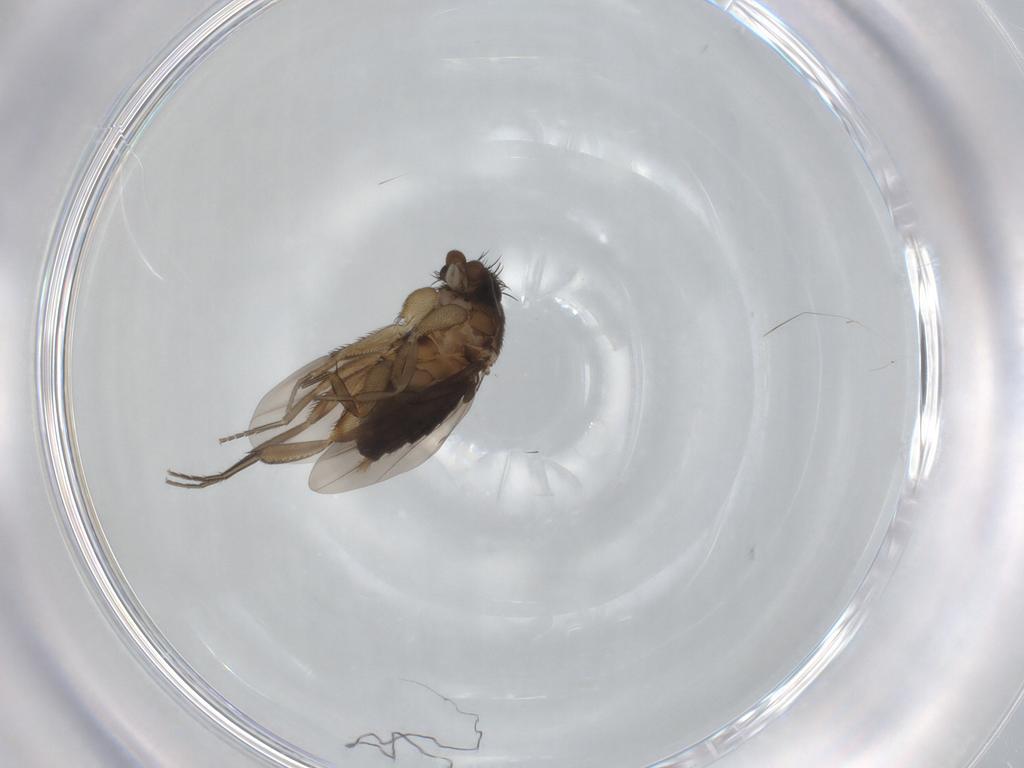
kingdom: Animalia
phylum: Arthropoda
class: Insecta
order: Diptera
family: Phoridae
